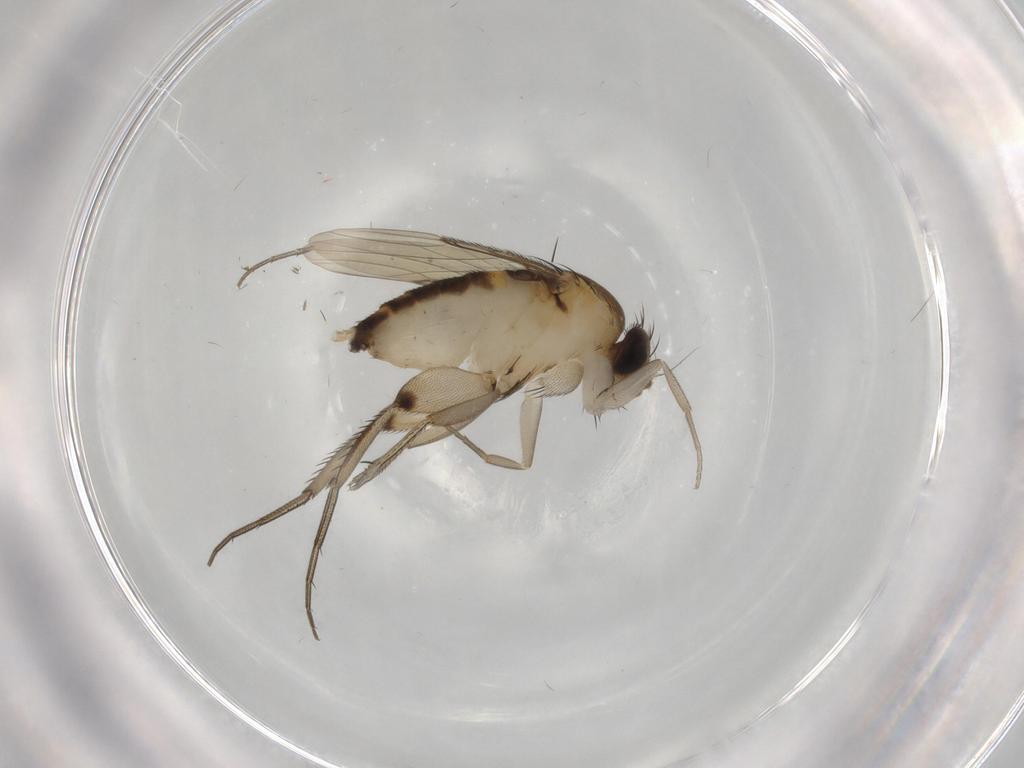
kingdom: Animalia
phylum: Arthropoda
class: Insecta
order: Diptera
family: Phoridae
